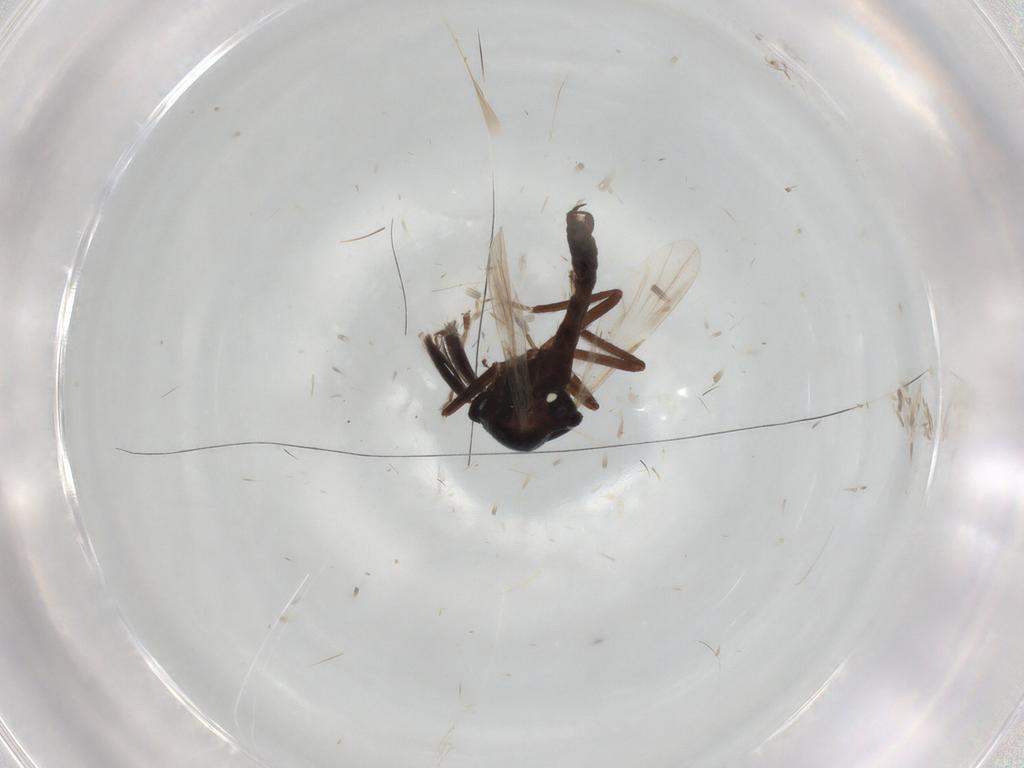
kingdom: Animalia
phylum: Arthropoda
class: Insecta
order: Diptera
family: Ceratopogonidae
